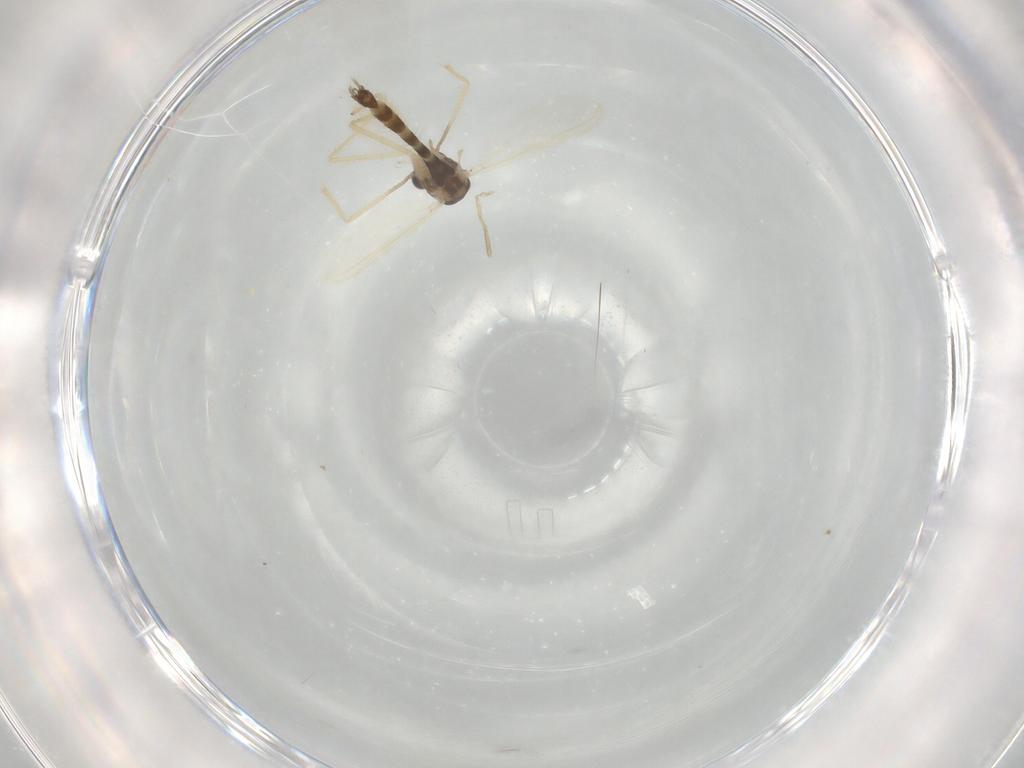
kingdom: Animalia
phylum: Arthropoda
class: Insecta
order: Diptera
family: Chironomidae
